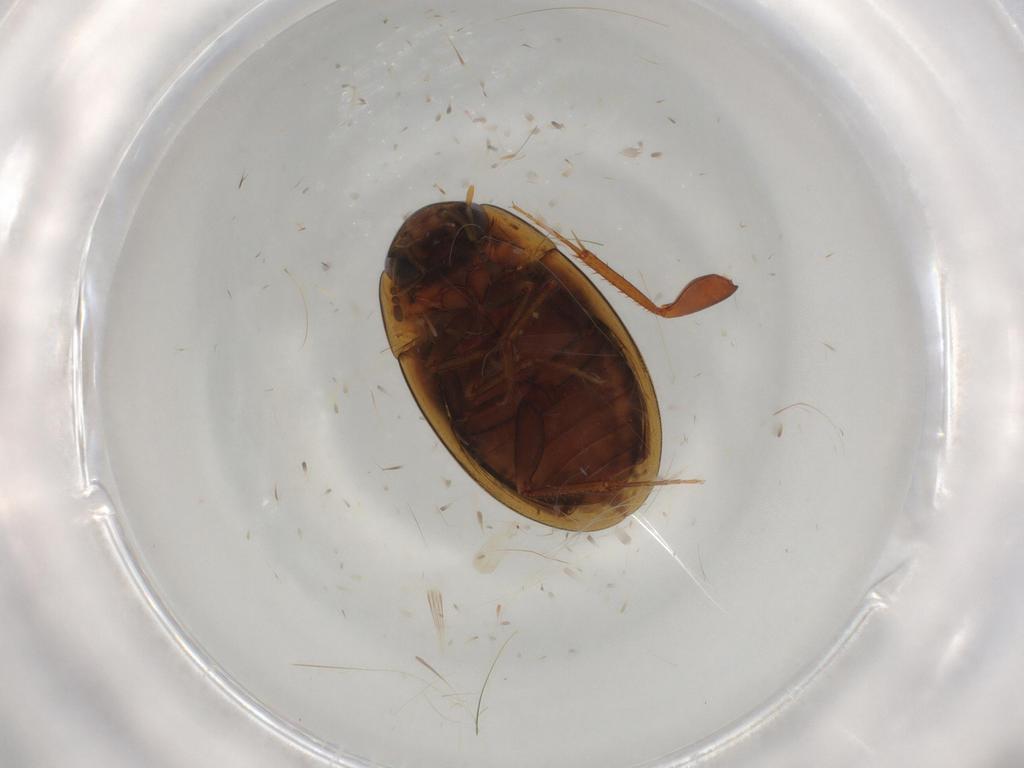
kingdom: Animalia
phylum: Arthropoda
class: Insecta
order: Coleoptera
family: Hydrophilidae
